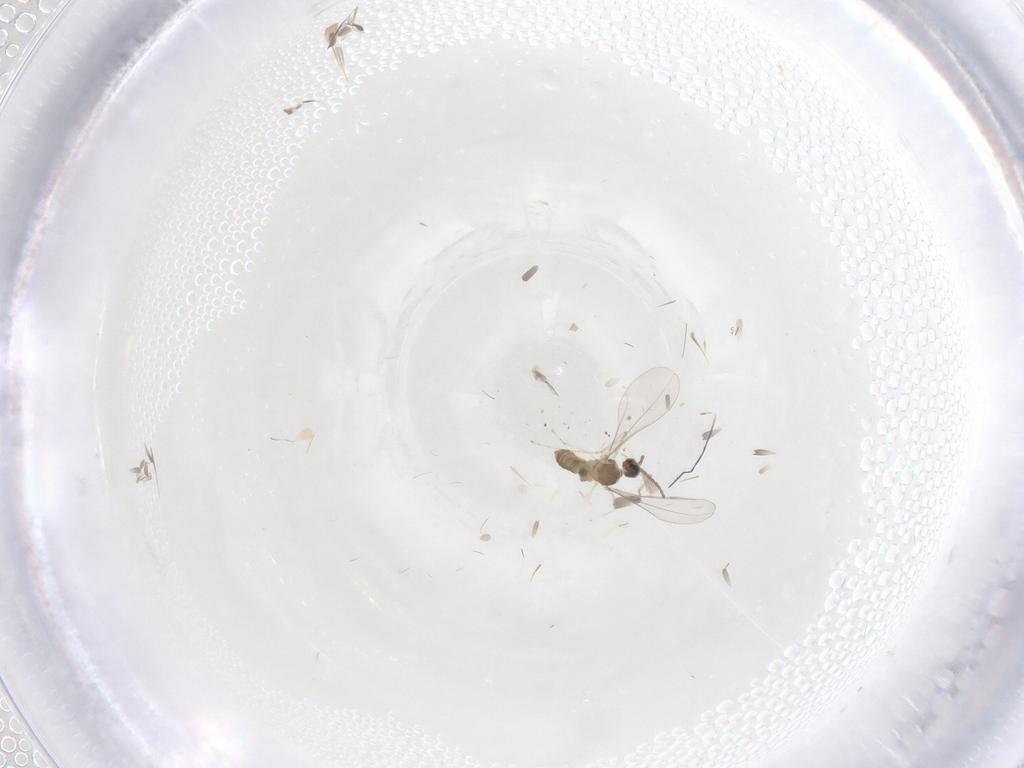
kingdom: Animalia
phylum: Arthropoda
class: Insecta
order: Diptera
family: Cecidomyiidae
